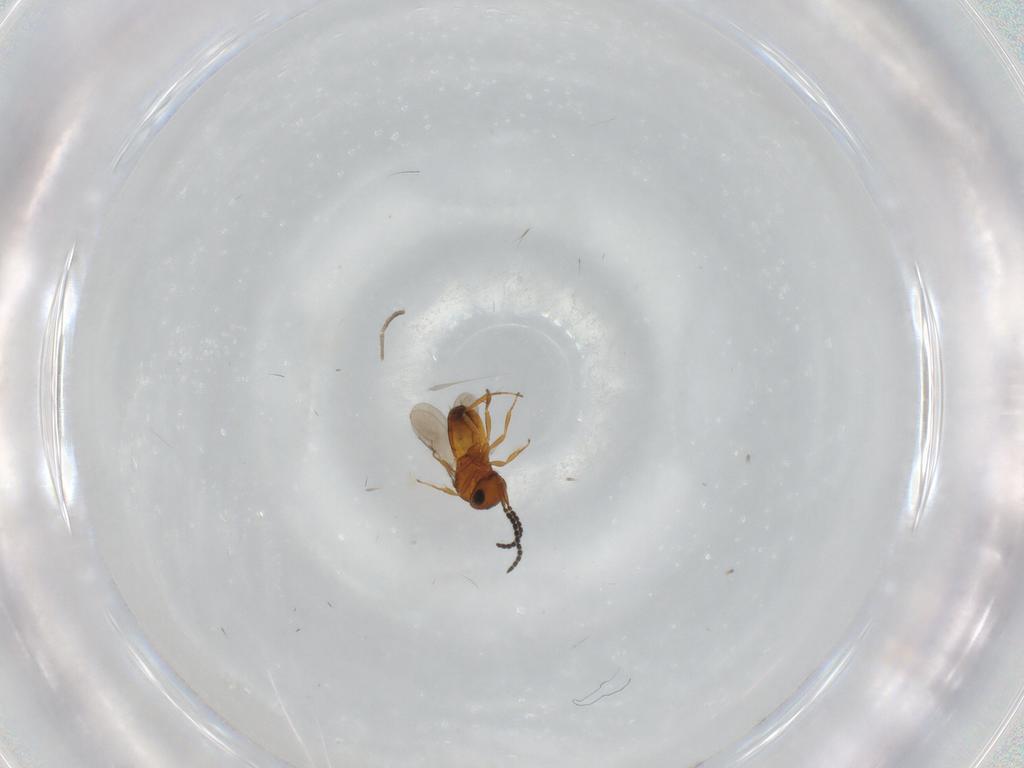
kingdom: Animalia
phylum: Arthropoda
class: Insecta
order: Hymenoptera
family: Scelionidae
